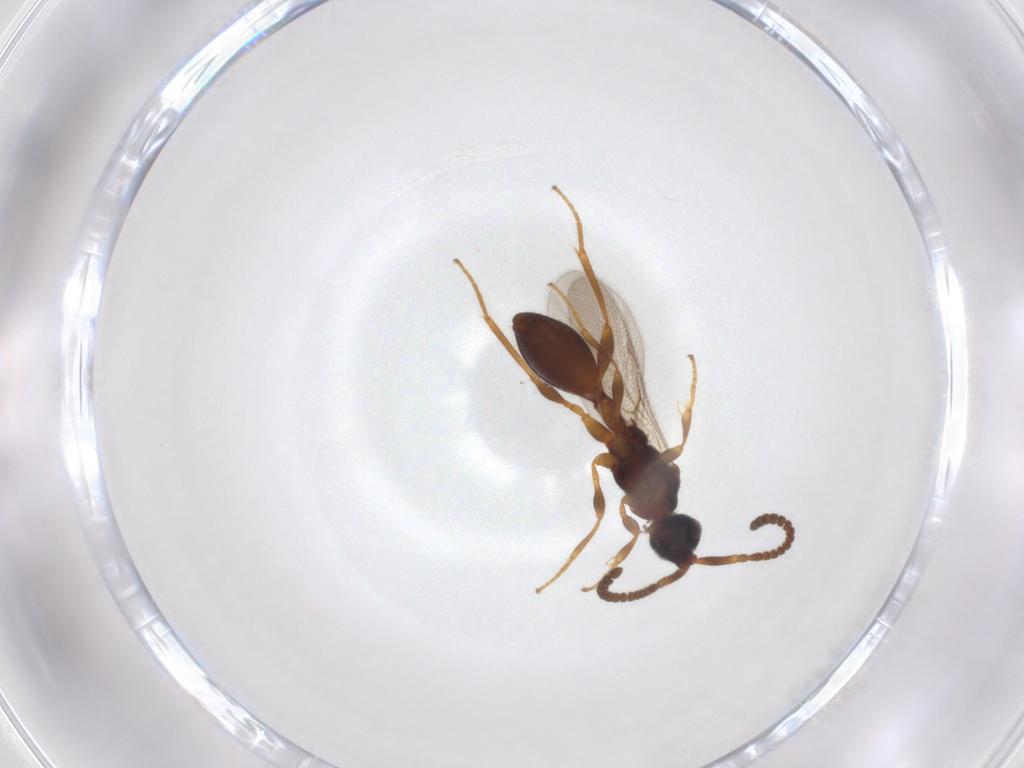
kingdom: Animalia
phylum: Arthropoda
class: Insecta
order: Hymenoptera
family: Diapriidae
